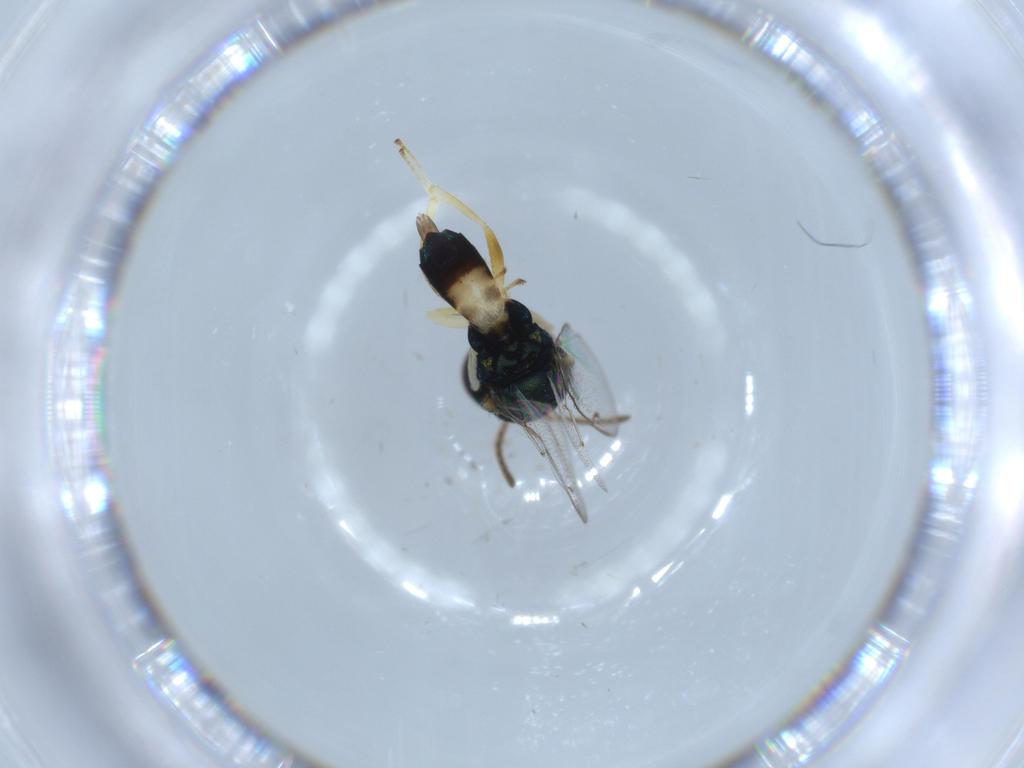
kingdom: Animalia
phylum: Arthropoda
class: Insecta
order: Hymenoptera
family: Pteromalidae
